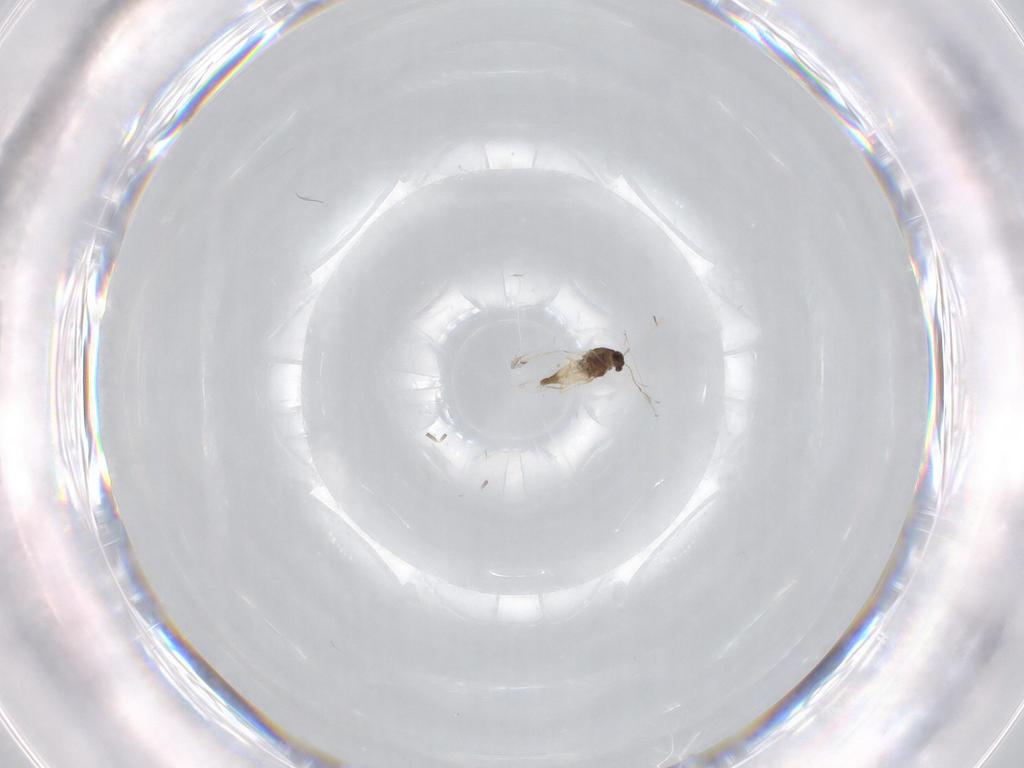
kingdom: Animalia
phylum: Arthropoda
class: Insecta
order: Diptera
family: Chironomidae
